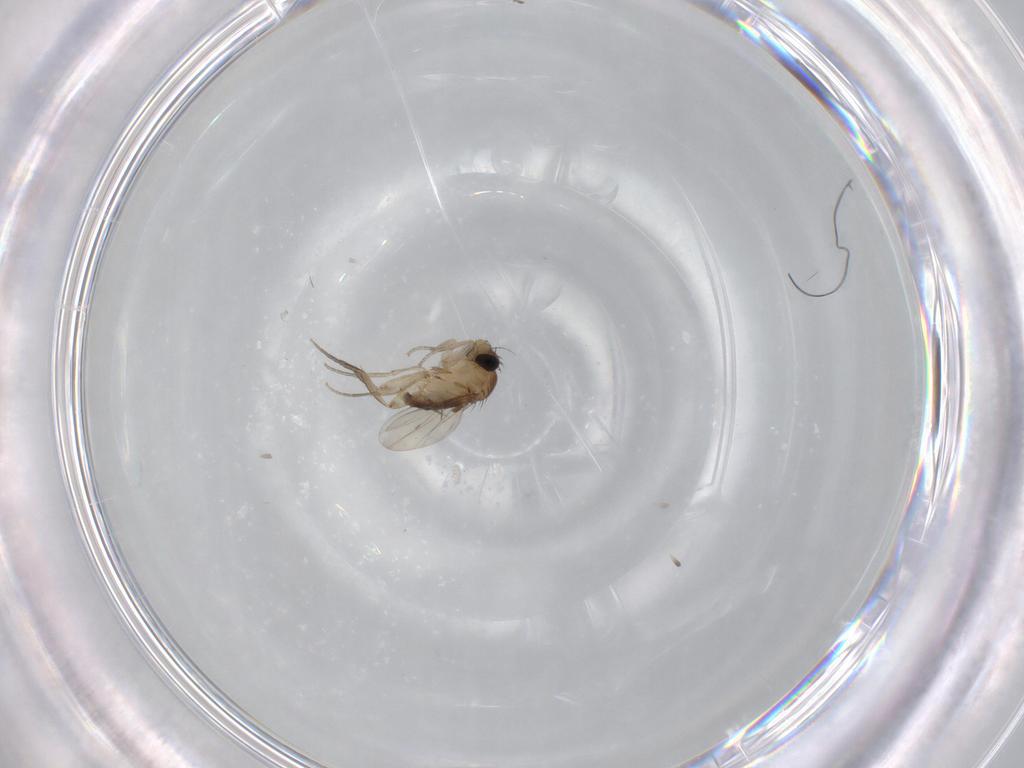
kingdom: Animalia
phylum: Arthropoda
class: Insecta
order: Diptera
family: Phoridae
